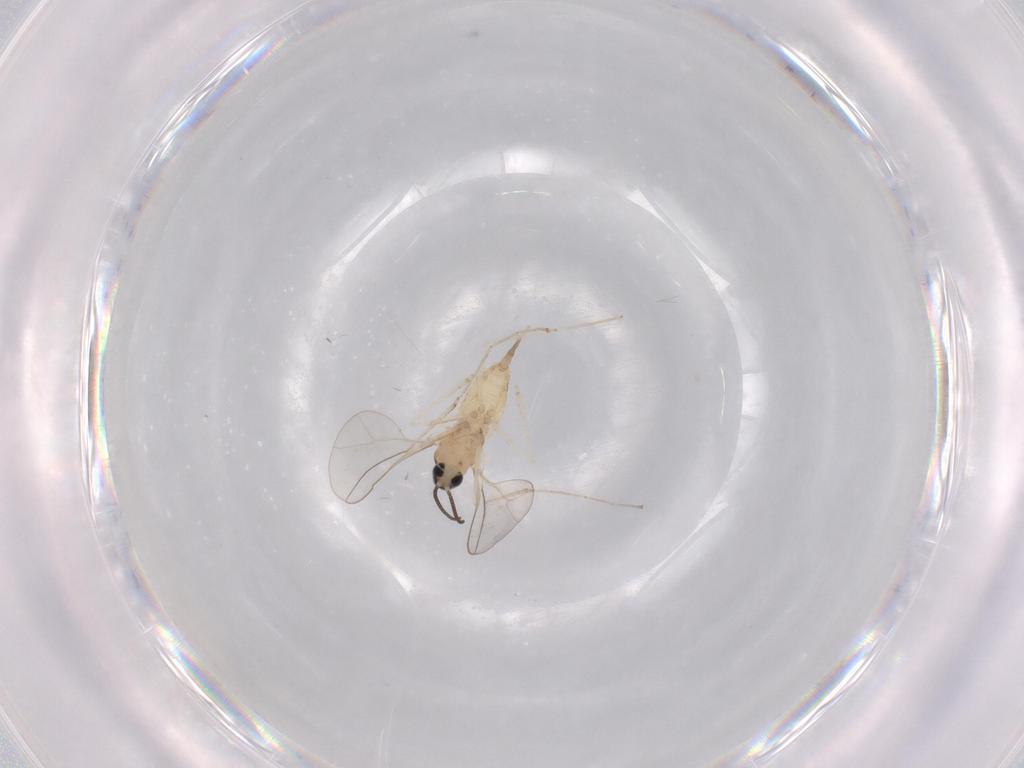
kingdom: Animalia
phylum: Arthropoda
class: Insecta
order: Diptera
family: Cecidomyiidae
